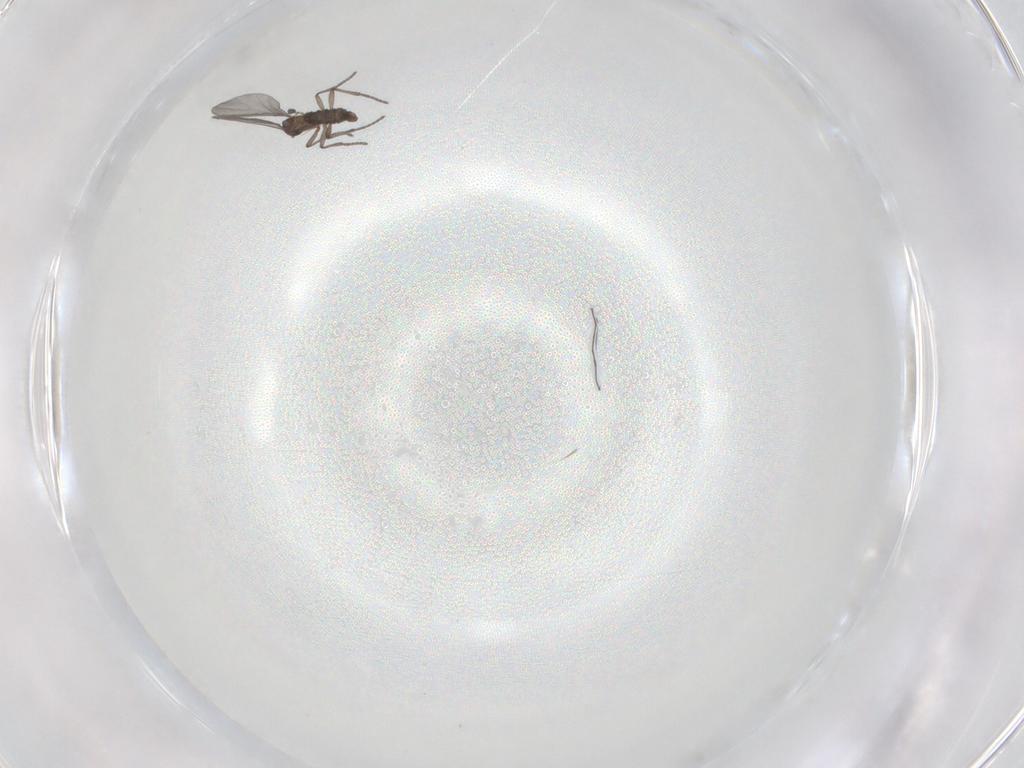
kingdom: Animalia
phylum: Arthropoda
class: Insecta
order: Diptera
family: Sciaridae
